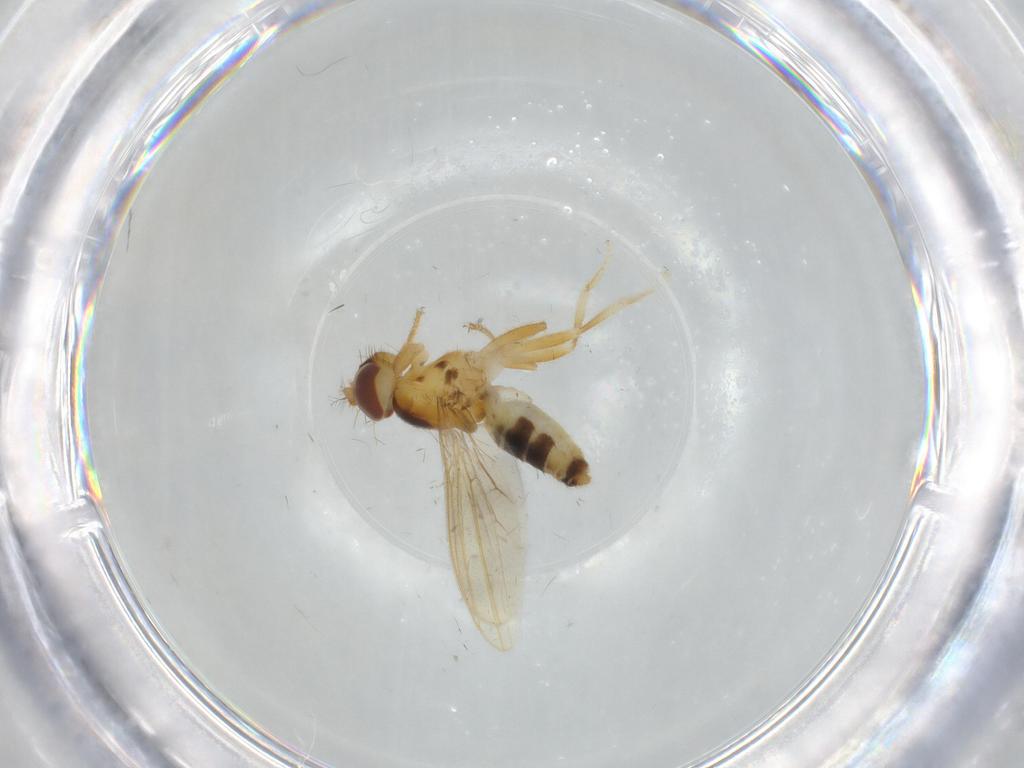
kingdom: Animalia
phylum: Arthropoda
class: Insecta
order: Diptera
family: Periscelididae
